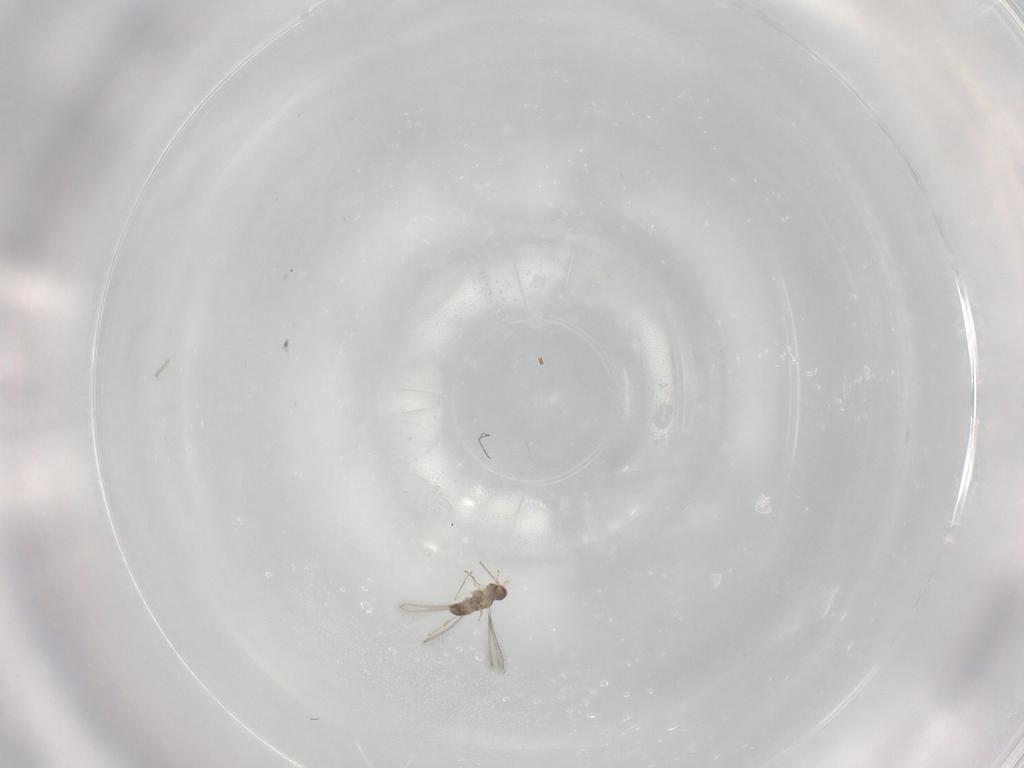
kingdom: Animalia
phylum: Arthropoda
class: Insecta
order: Hymenoptera
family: Mymaridae
